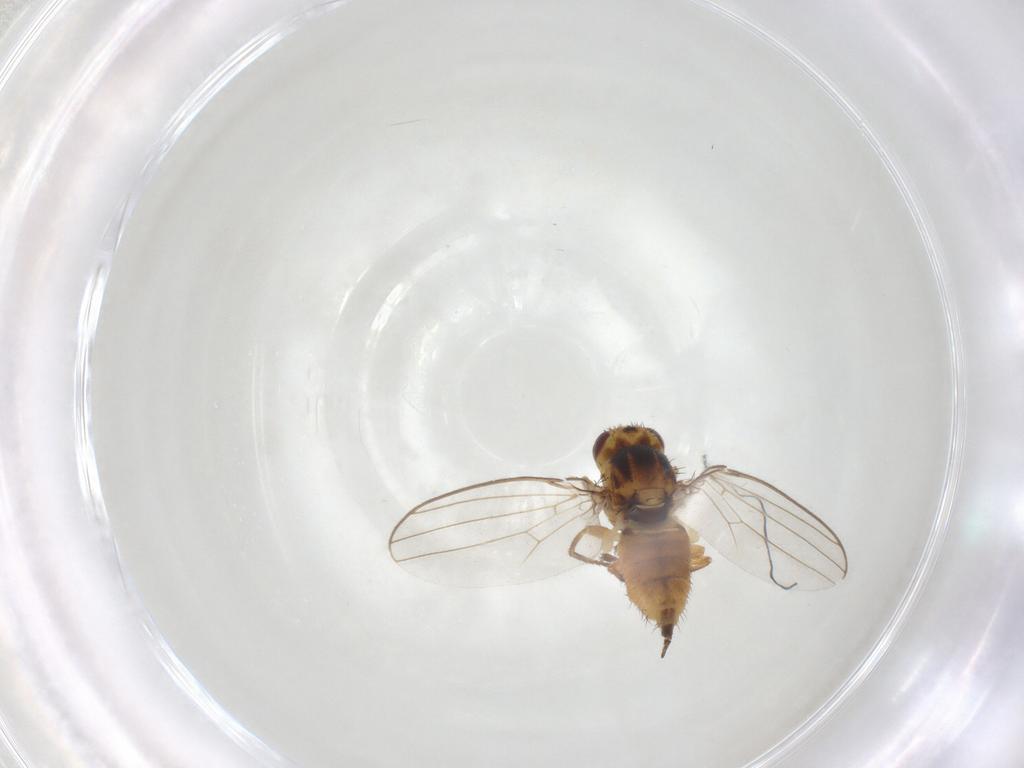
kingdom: Animalia
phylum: Arthropoda
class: Insecta
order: Diptera
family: Chloropidae
